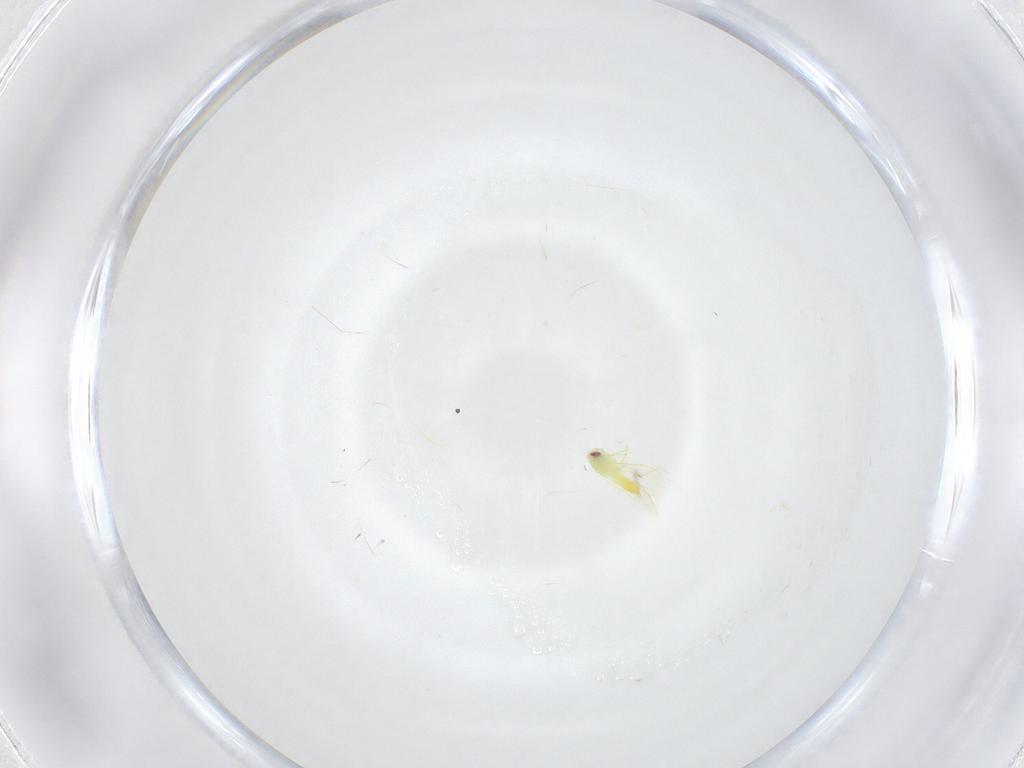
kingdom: Animalia
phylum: Arthropoda
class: Insecta
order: Hemiptera
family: Aleyrodidae
